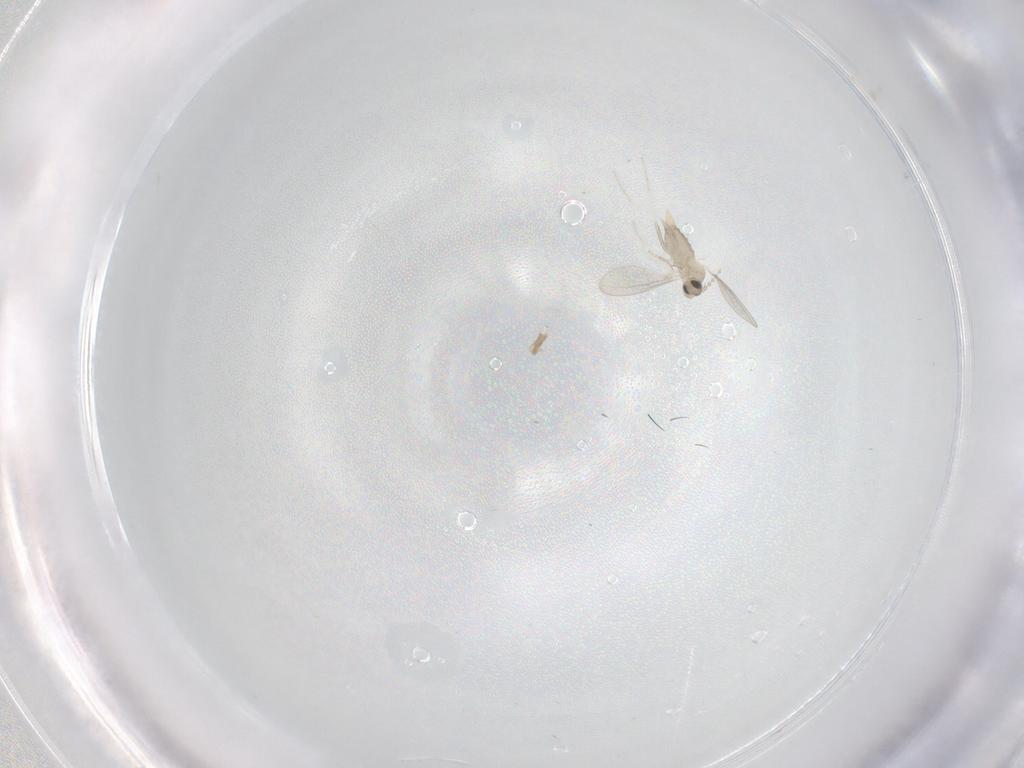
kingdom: Animalia
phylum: Arthropoda
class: Insecta
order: Diptera
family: Cecidomyiidae
